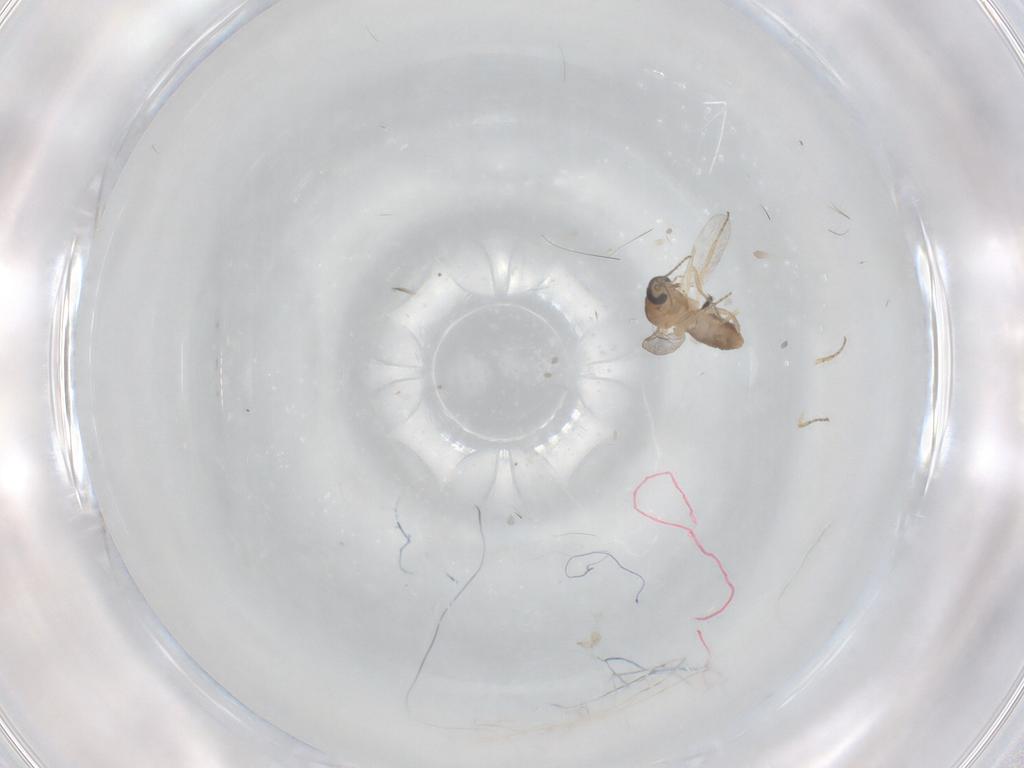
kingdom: Animalia
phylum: Arthropoda
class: Insecta
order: Diptera
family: Ceratopogonidae
